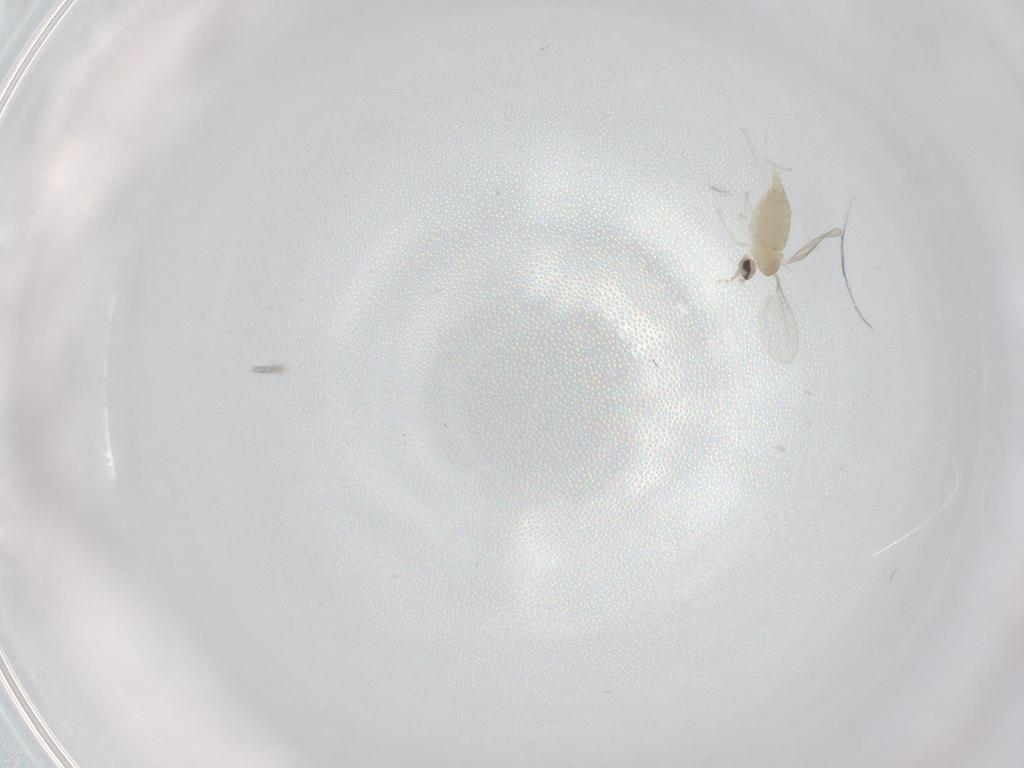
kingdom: Animalia
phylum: Arthropoda
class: Insecta
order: Diptera
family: Cecidomyiidae
